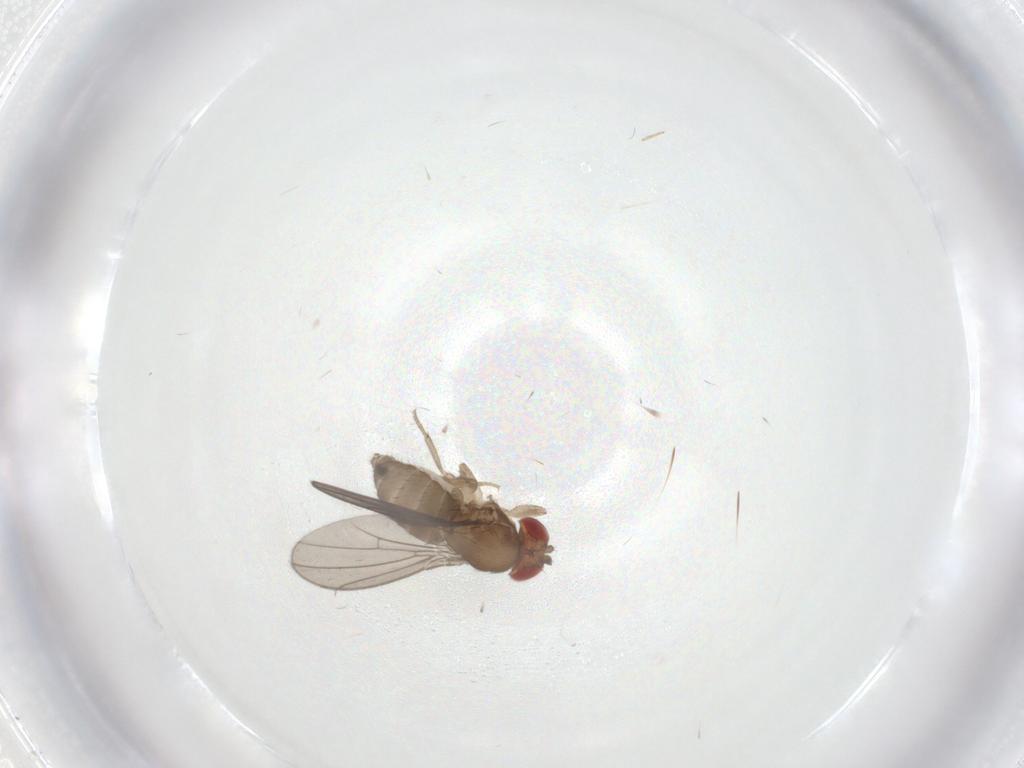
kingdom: Animalia
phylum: Arthropoda
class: Insecta
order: Diptera
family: Drosophilidae
